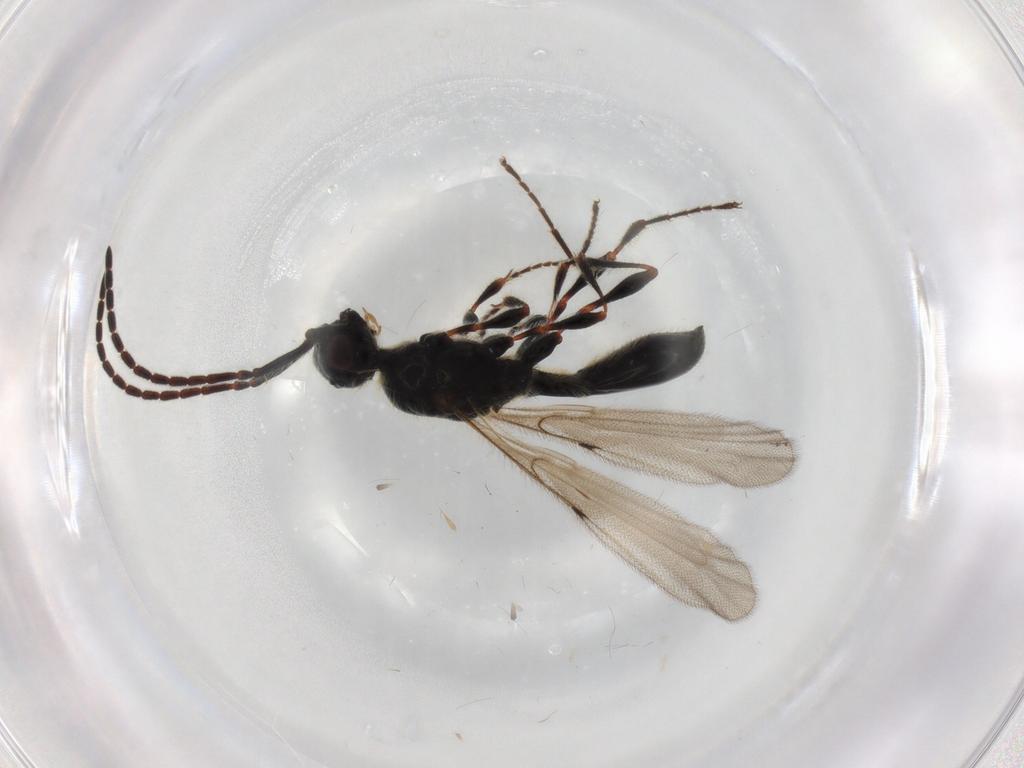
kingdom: Animalia
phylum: Arthropoda
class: Insecta
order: Hymenoptera
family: Diapriidae
